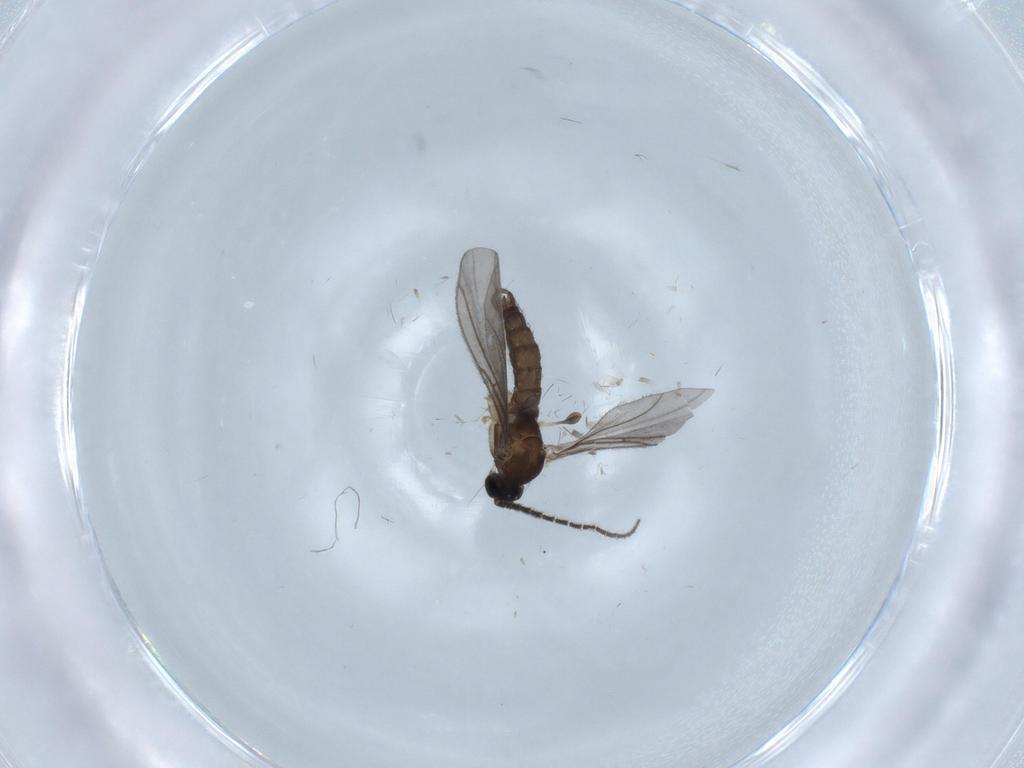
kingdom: Animalia
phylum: Arthropoda
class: Insecta
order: Diptera
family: Sciaridae
